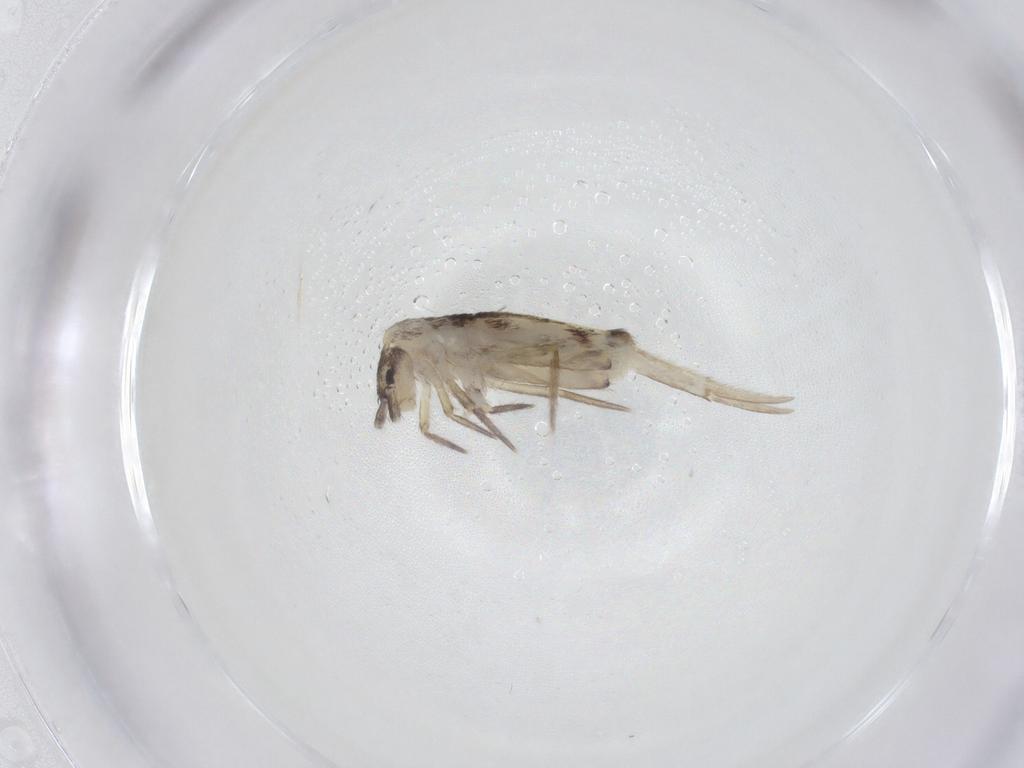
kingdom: Animalia
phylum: Arthropoda
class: Collembola
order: Entomobryomorpha
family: Entomobryidae
